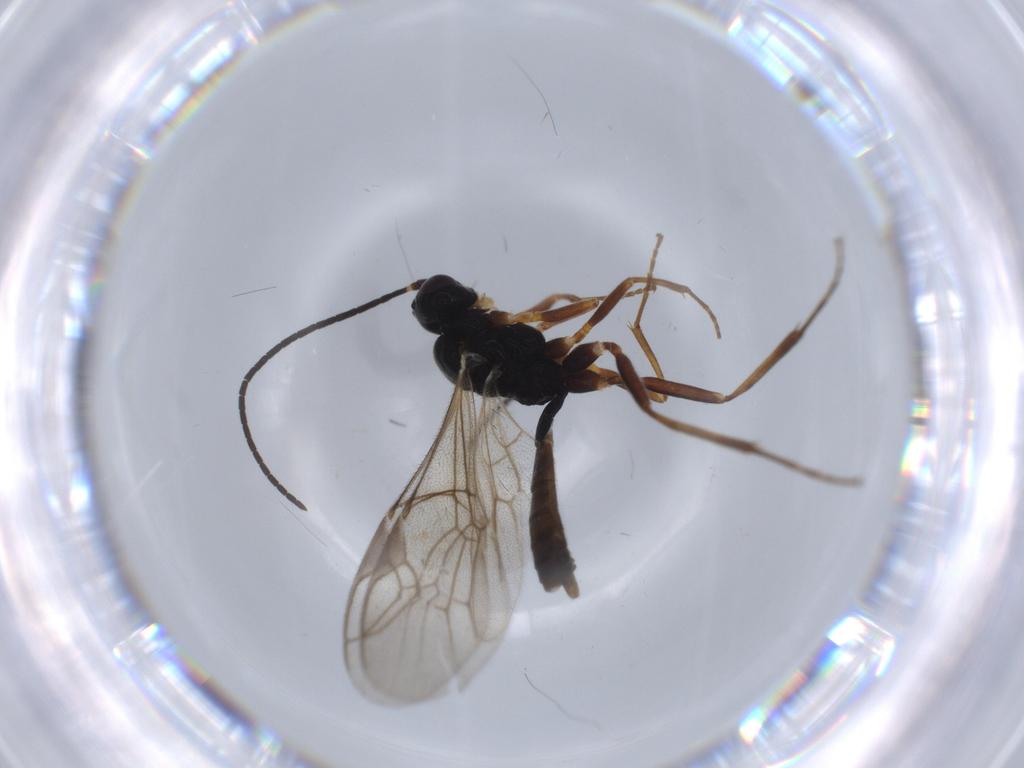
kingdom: Animalia
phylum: Arthropoda
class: Insecta
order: Hymenoptera
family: Ichneumonidae
